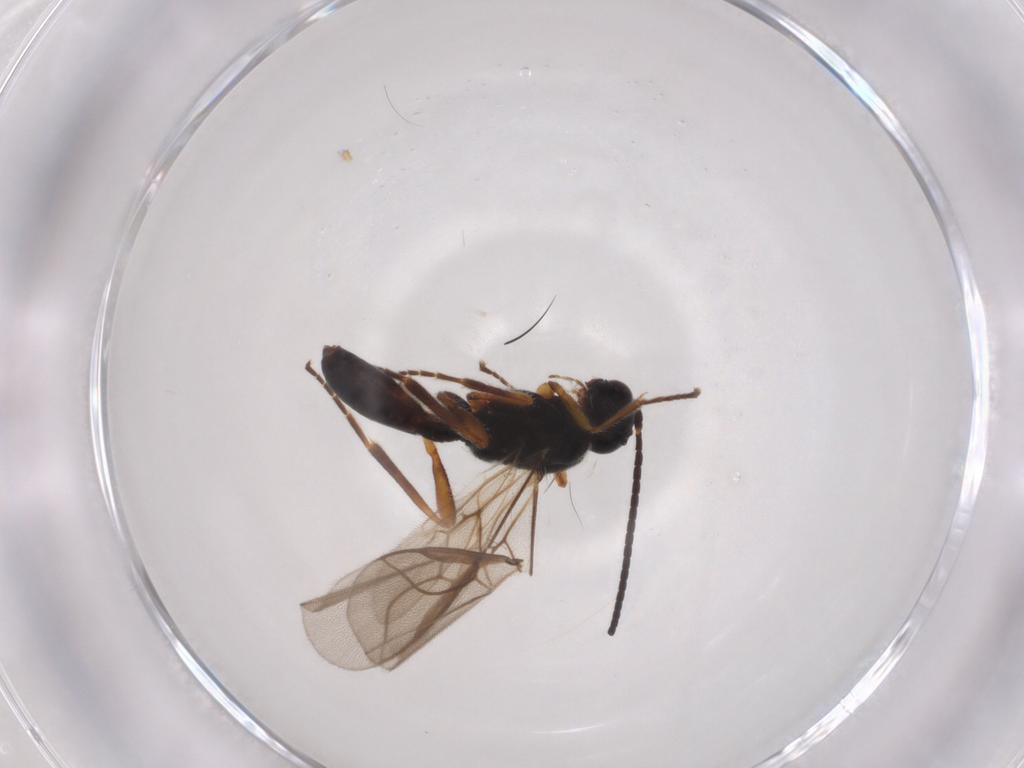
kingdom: Animalia
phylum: Arthropoda
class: Insecta
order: Hymenoptera
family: Braconidae
